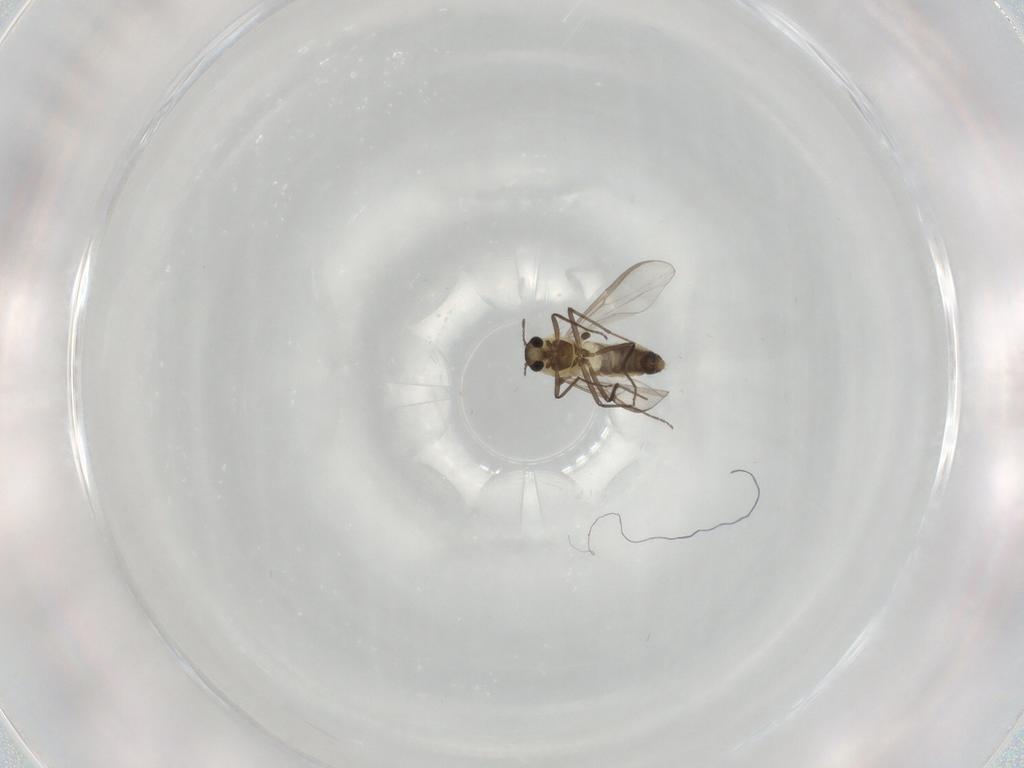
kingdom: Animalia
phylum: Arthropoda
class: Insecta
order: Diptera
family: Chironomidae
